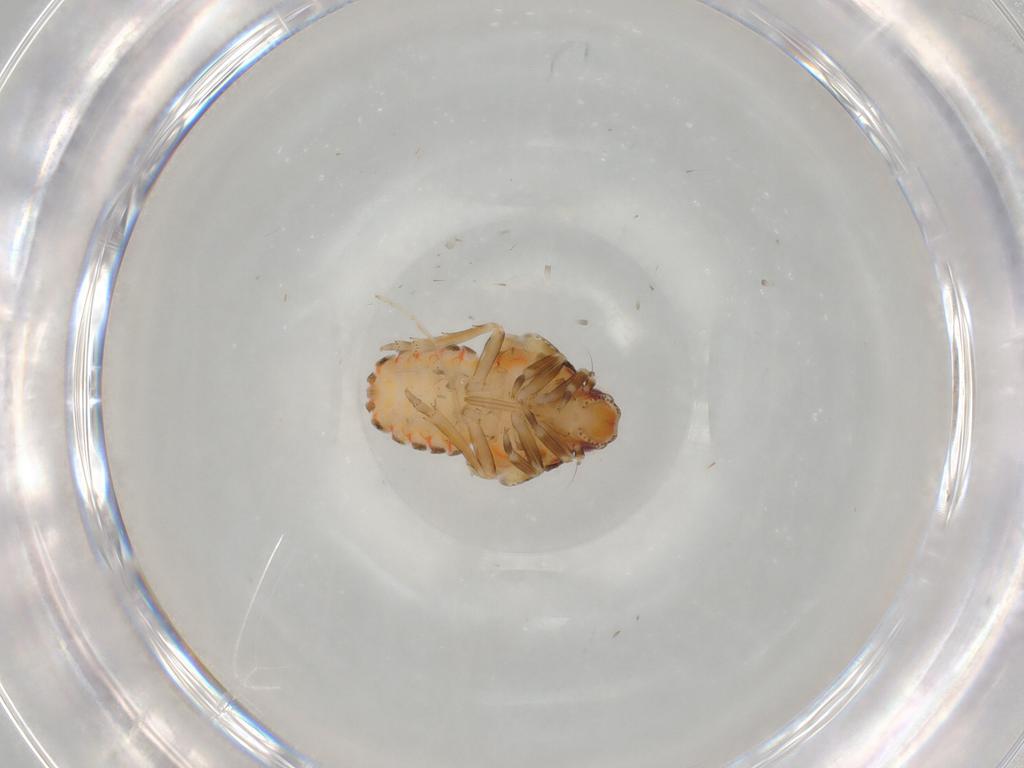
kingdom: Animalia
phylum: Arthropoda
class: Insecta
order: Hemiptera
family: Flatidae
